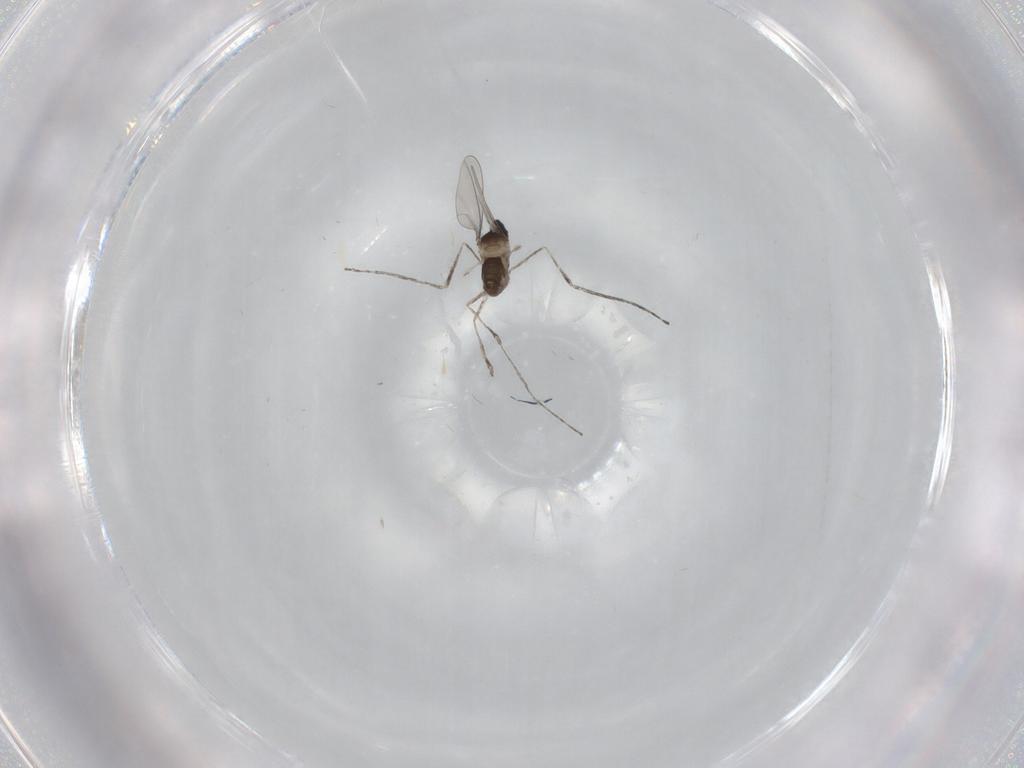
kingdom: Animalia
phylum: Arthropoda
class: Insecta
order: Diptera
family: Cecidomyiidae
